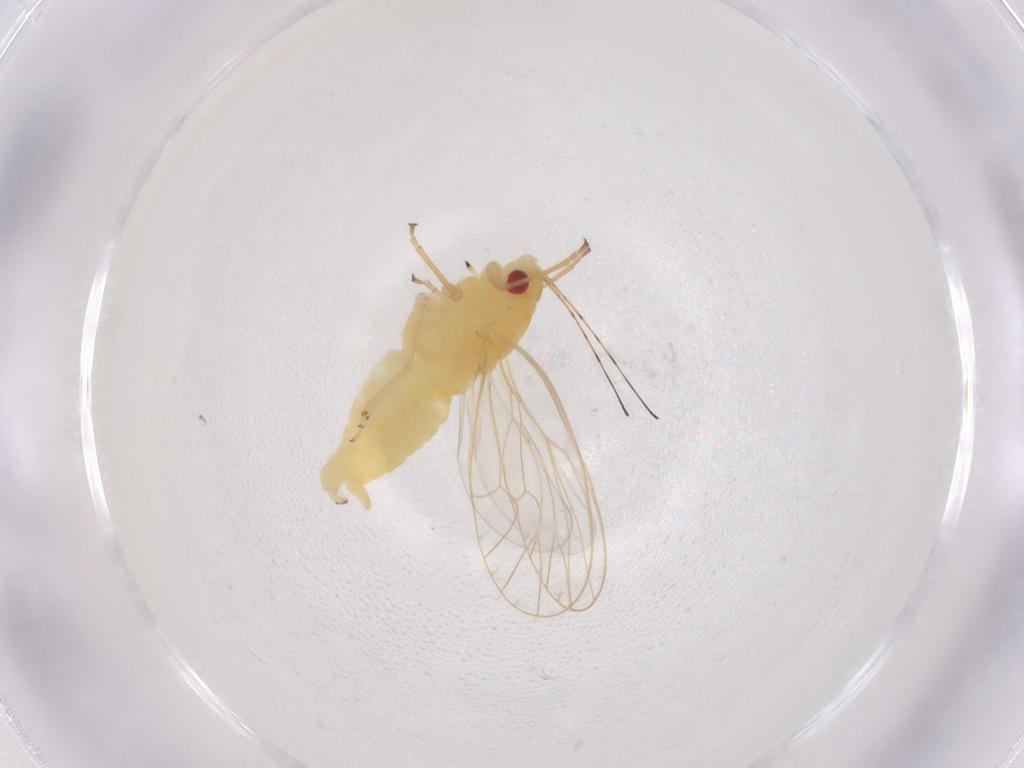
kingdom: Animalia
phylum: Arthropoda
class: Insecta
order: Hemiptera
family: Psyllidae
